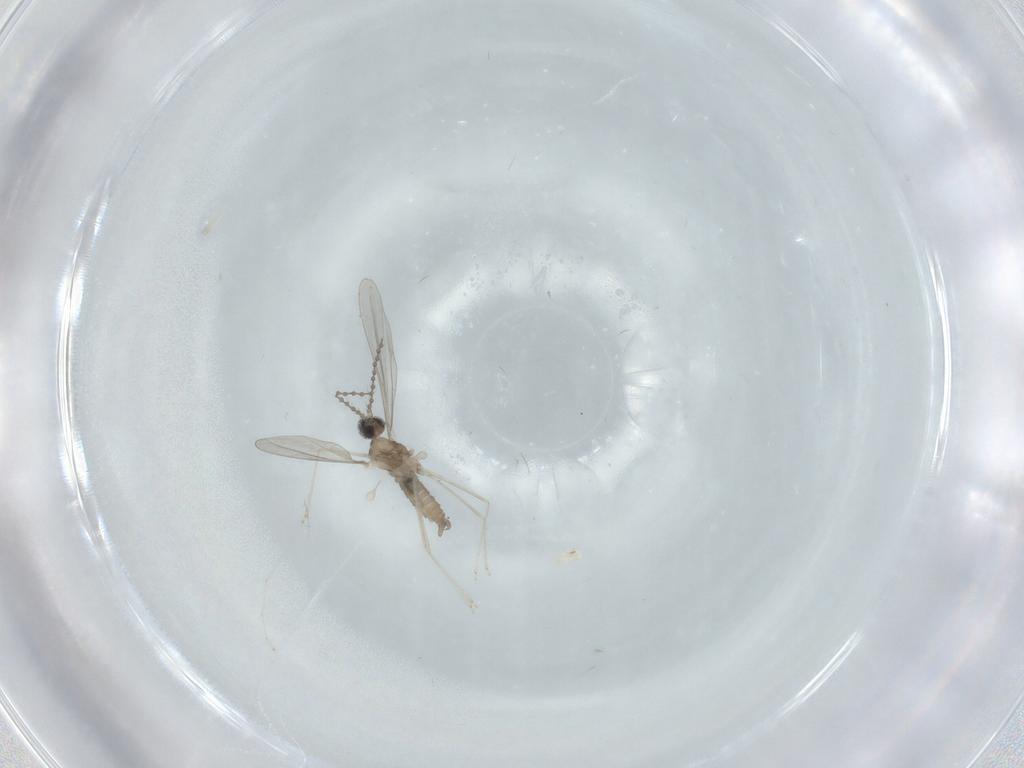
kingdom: Animalia
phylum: Arthropoda
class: Insecta
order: Diptera
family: Cecidomyiidae
